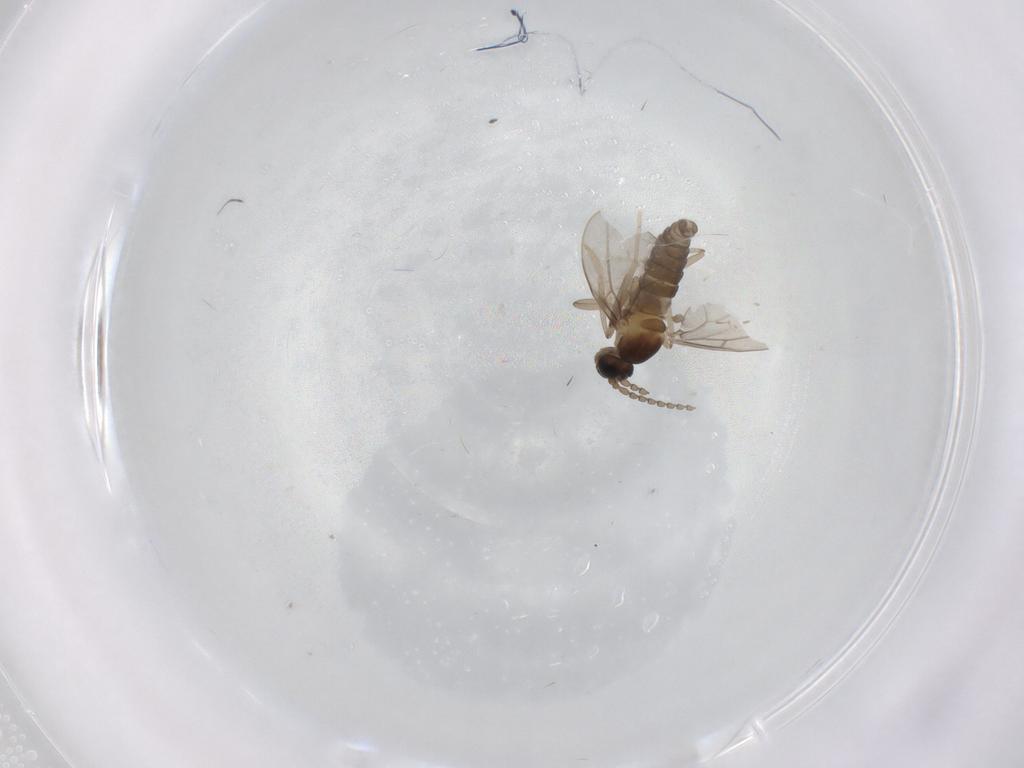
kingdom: Animalia
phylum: Arthropoda
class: Insecta
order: Diptera
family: Cecidomyiidae
